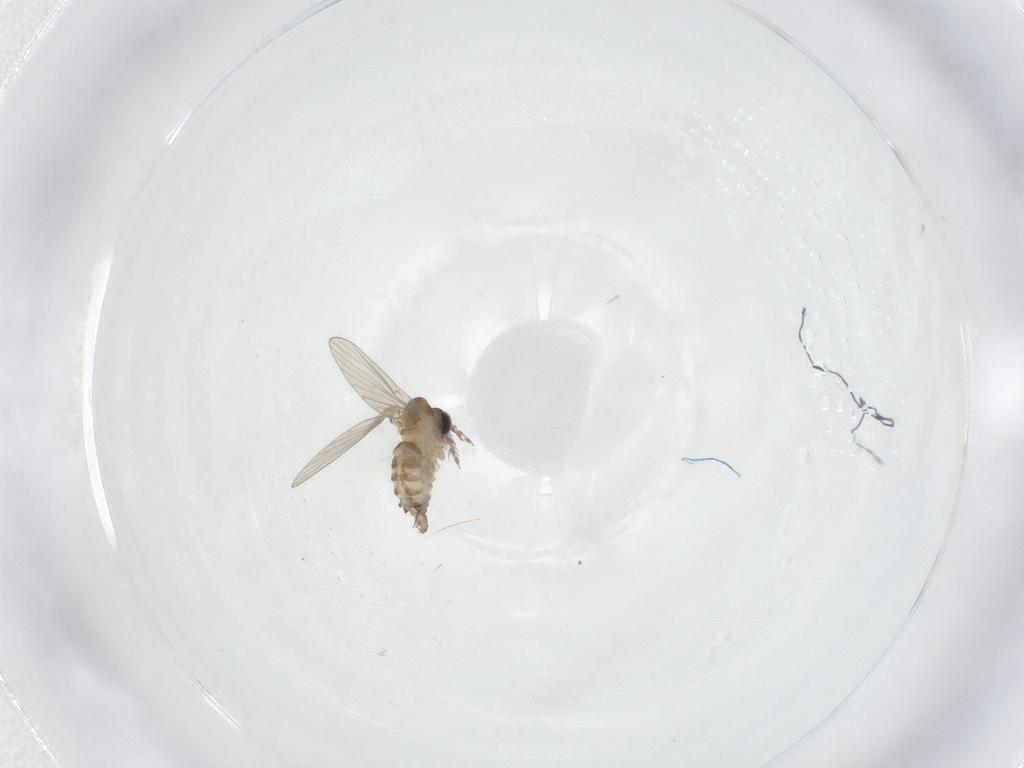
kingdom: Animalia
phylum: Arthropoda
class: Insecta
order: Diptera
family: Psychodidae
